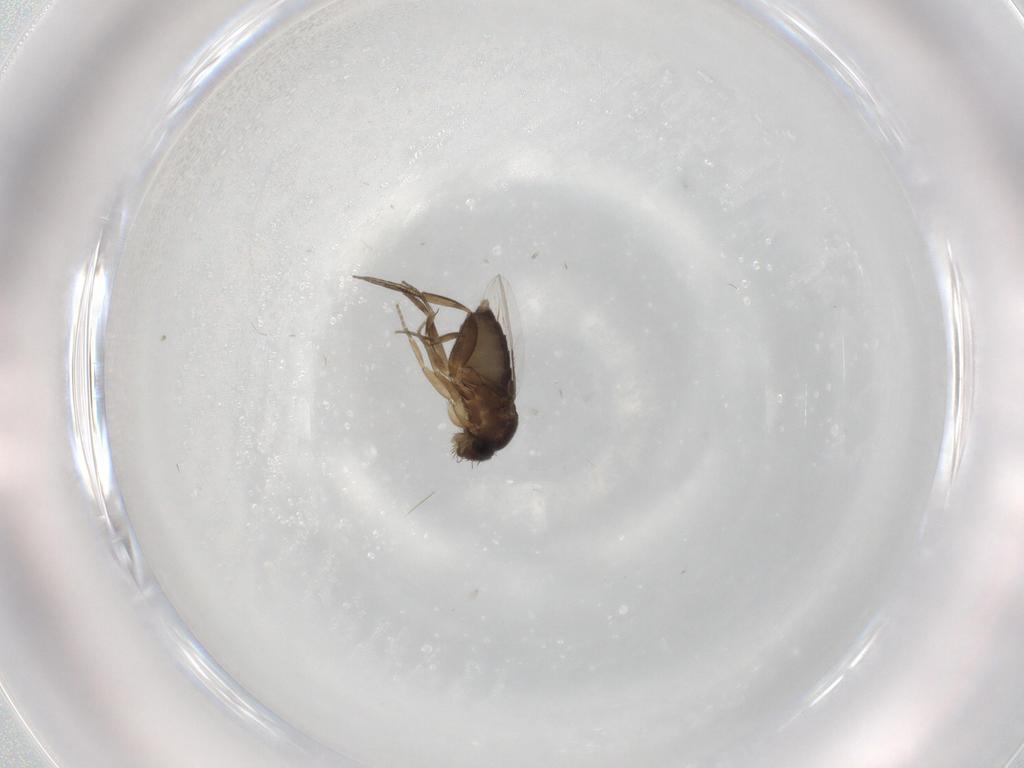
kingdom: Animalia
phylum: Arthropoda
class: Insecta
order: Diptera
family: Phoridae
